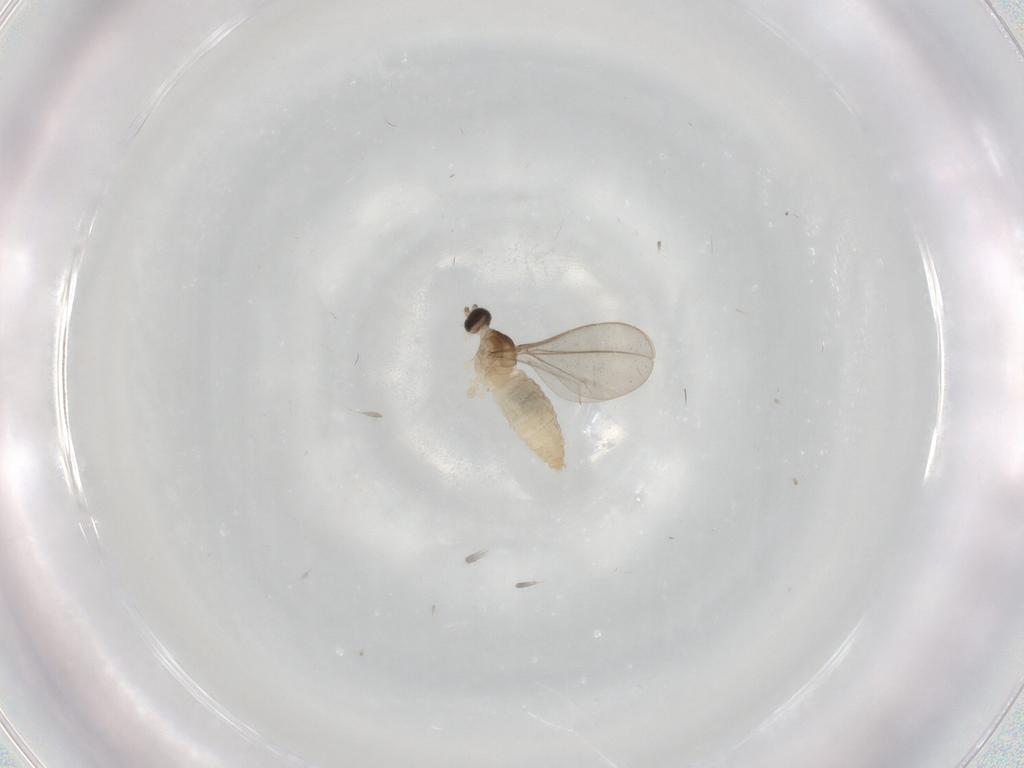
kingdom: Animalia
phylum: Arthropoda
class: Insecta
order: Diptera
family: Cecidomyiidae
